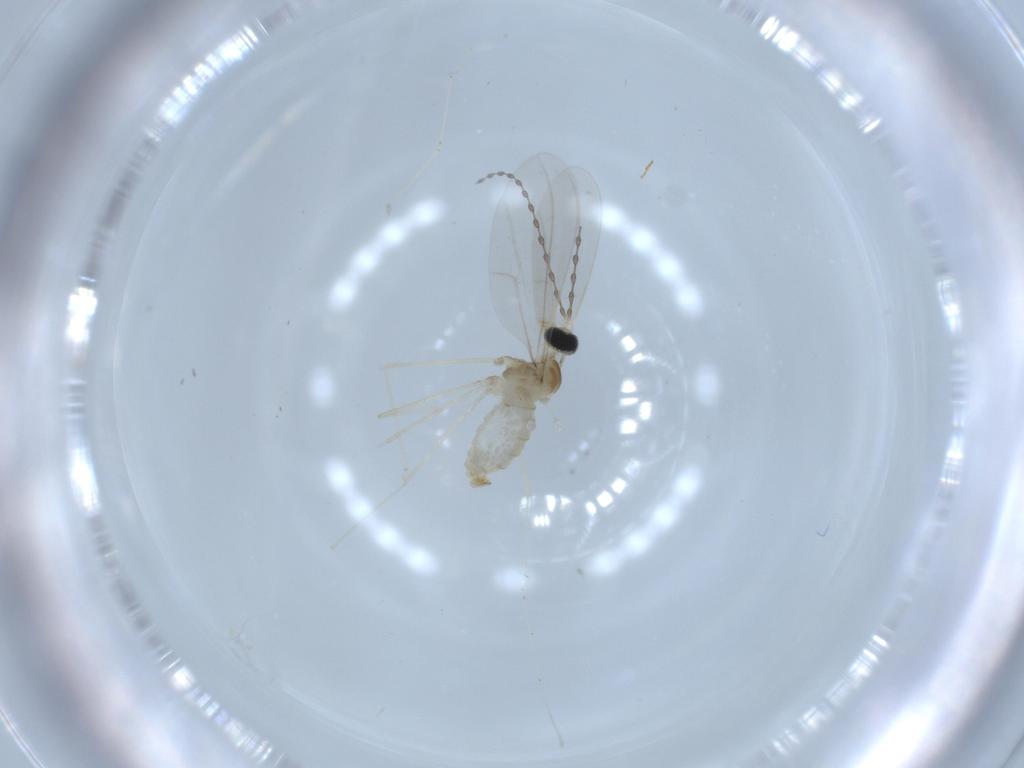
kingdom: Animalia
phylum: Arthropoda
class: Insecta
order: Diptera
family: Cecidomyiidae
